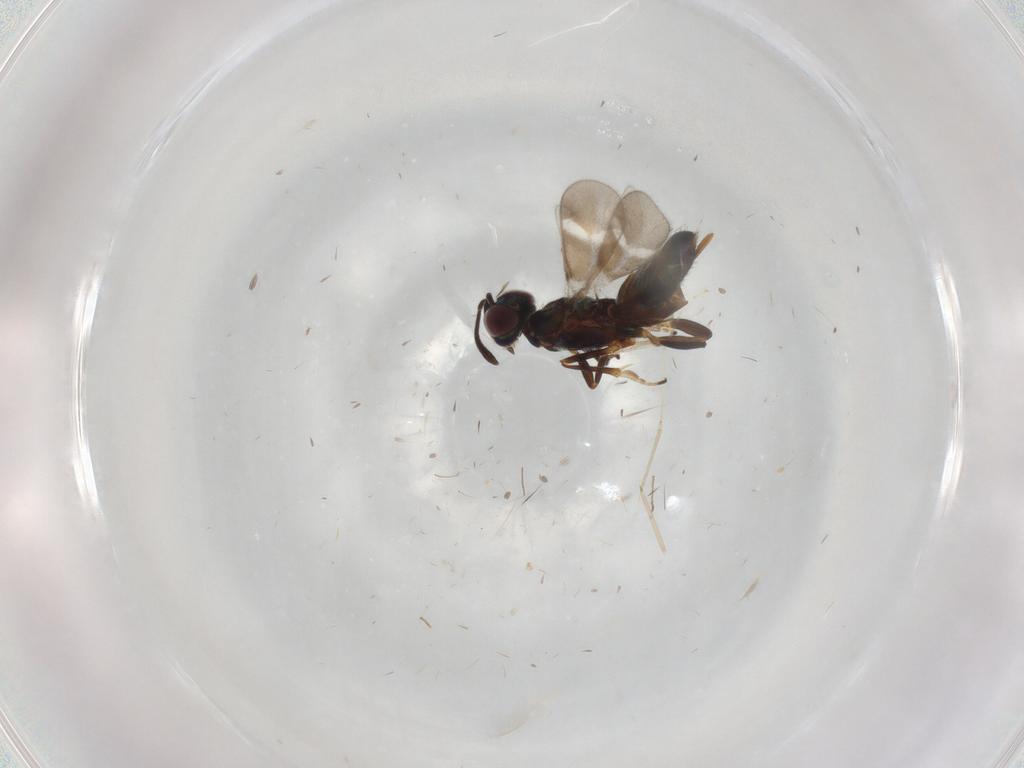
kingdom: Animalia
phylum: Arthropoda
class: Insecta
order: Hymenoptera
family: Eupelmidae
